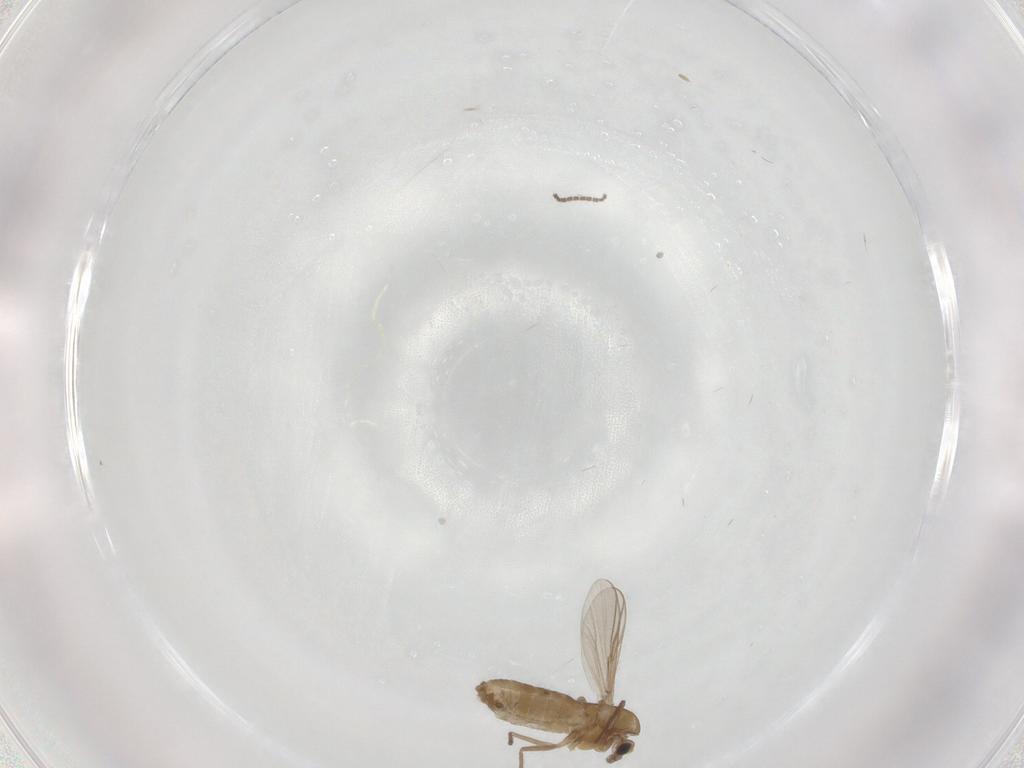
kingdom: Animalia
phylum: Arthropoda
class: Insecta
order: Diptera
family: Chironomidae
